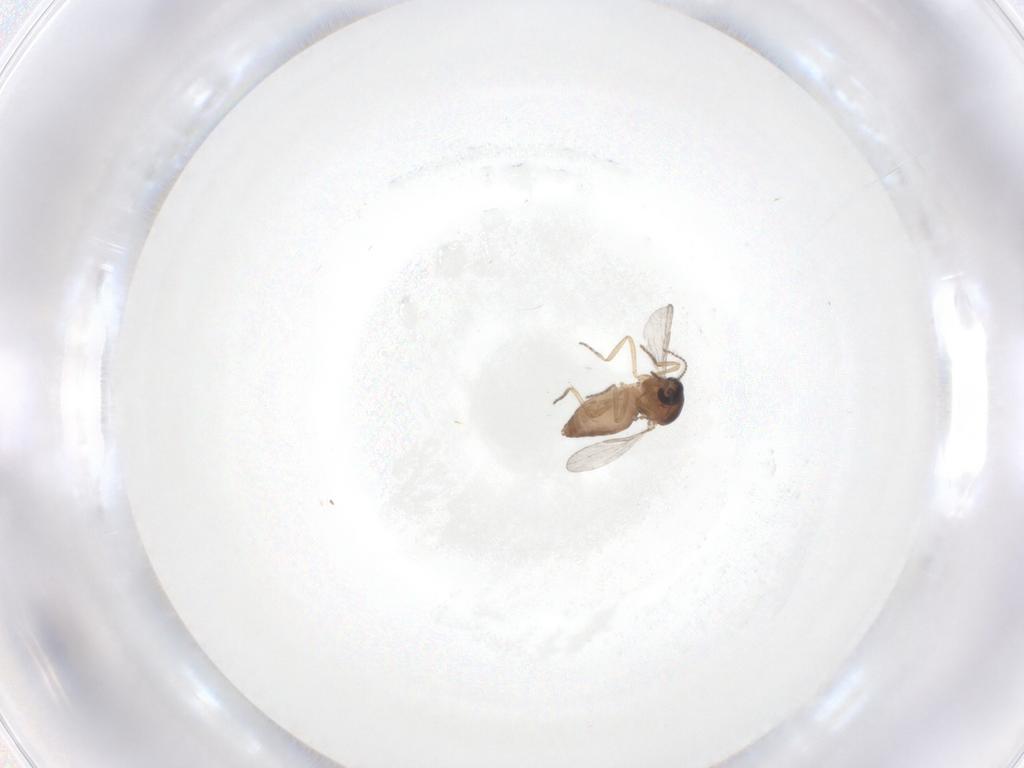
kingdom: Animalia
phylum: Arthropoda
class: Insecta
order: Diptera
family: Ceratopogonidae
